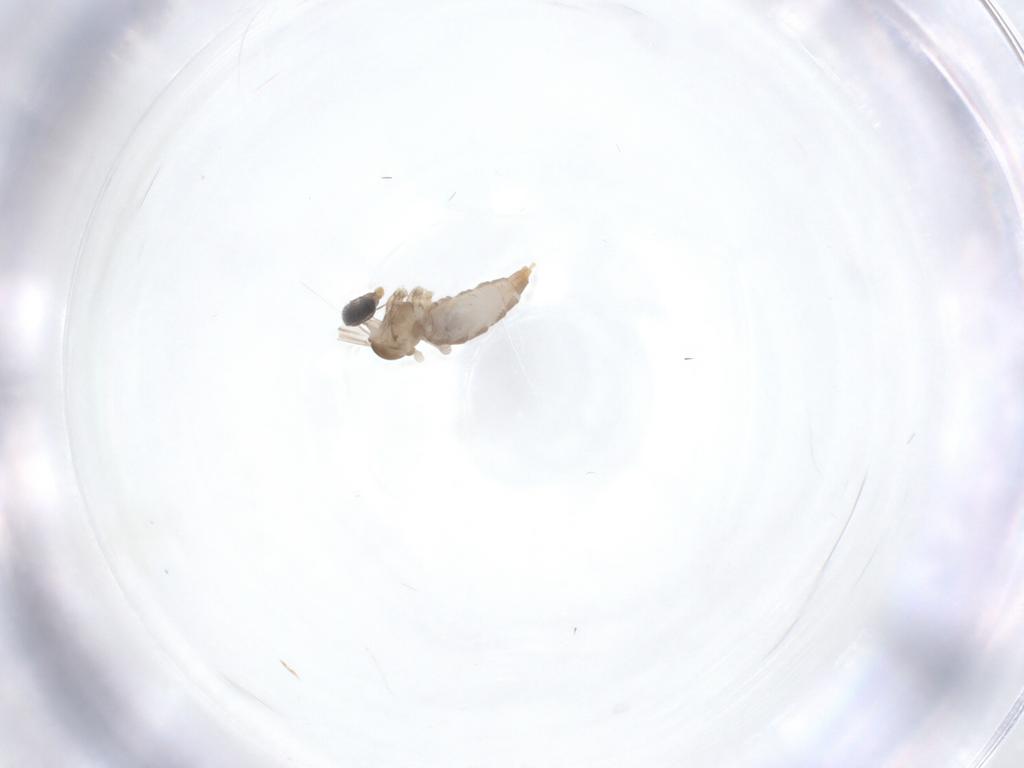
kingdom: Animalia
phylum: Arthropoda
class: Insecta
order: Diptera
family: Cecidomyiidae
